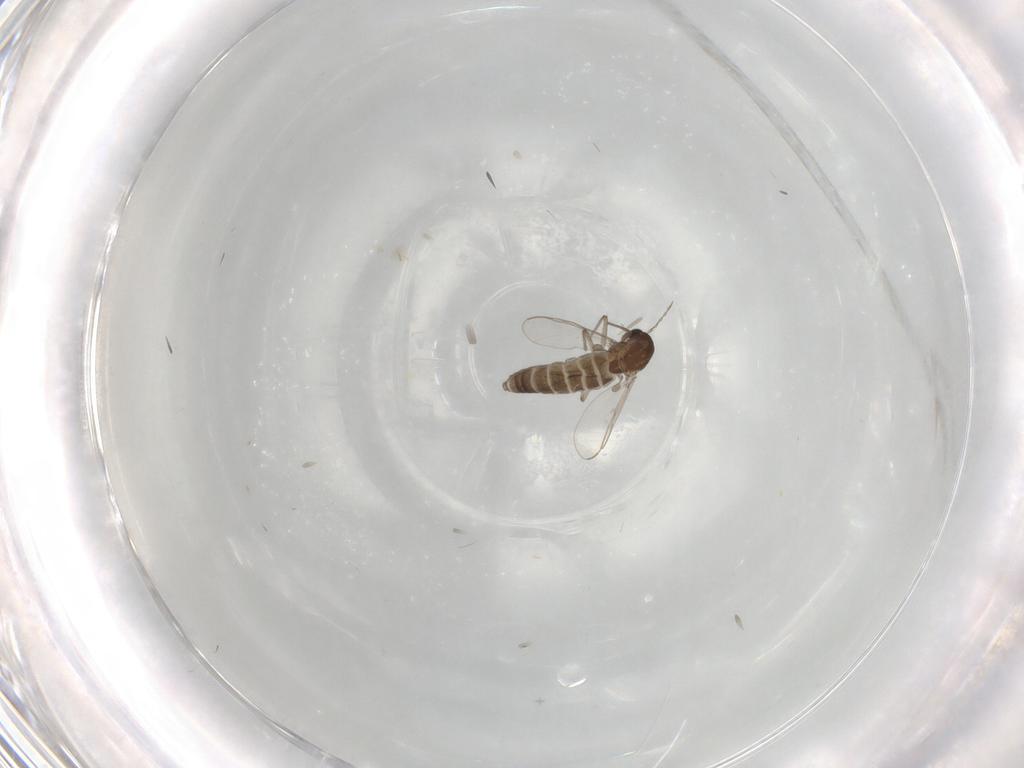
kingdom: Animalia
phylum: Arthropoda
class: Insecta
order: Diptera
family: Chironomidae
